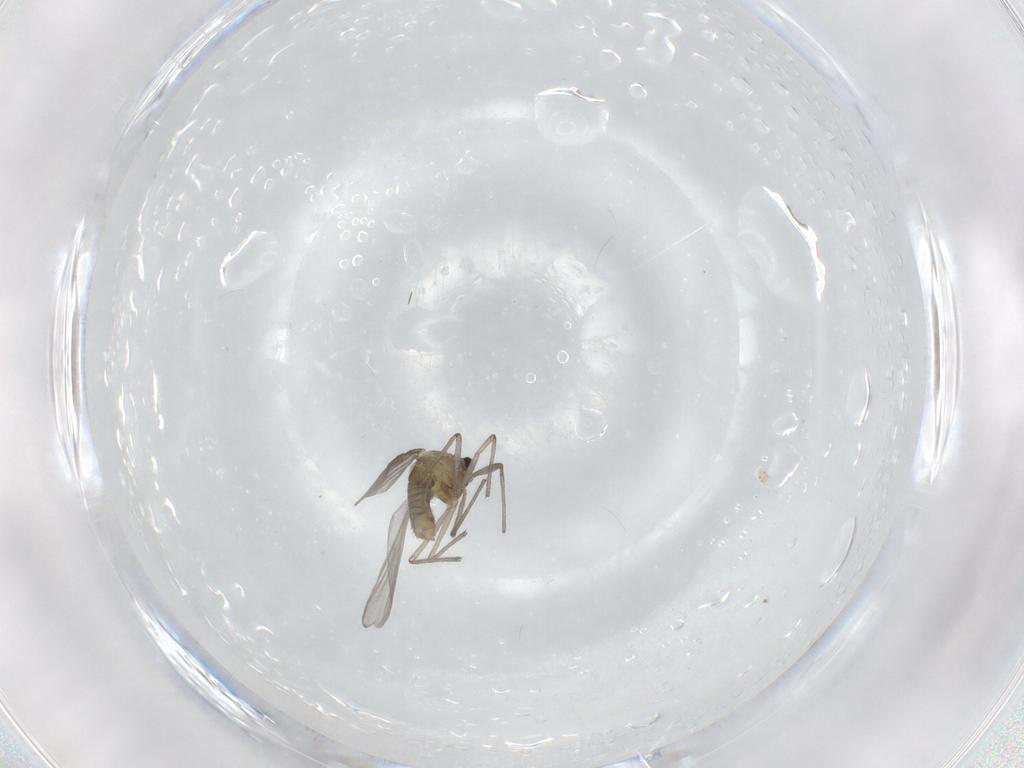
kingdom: Animalia
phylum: Arthropoda
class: Insecta
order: Diptera
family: Chironomidae
